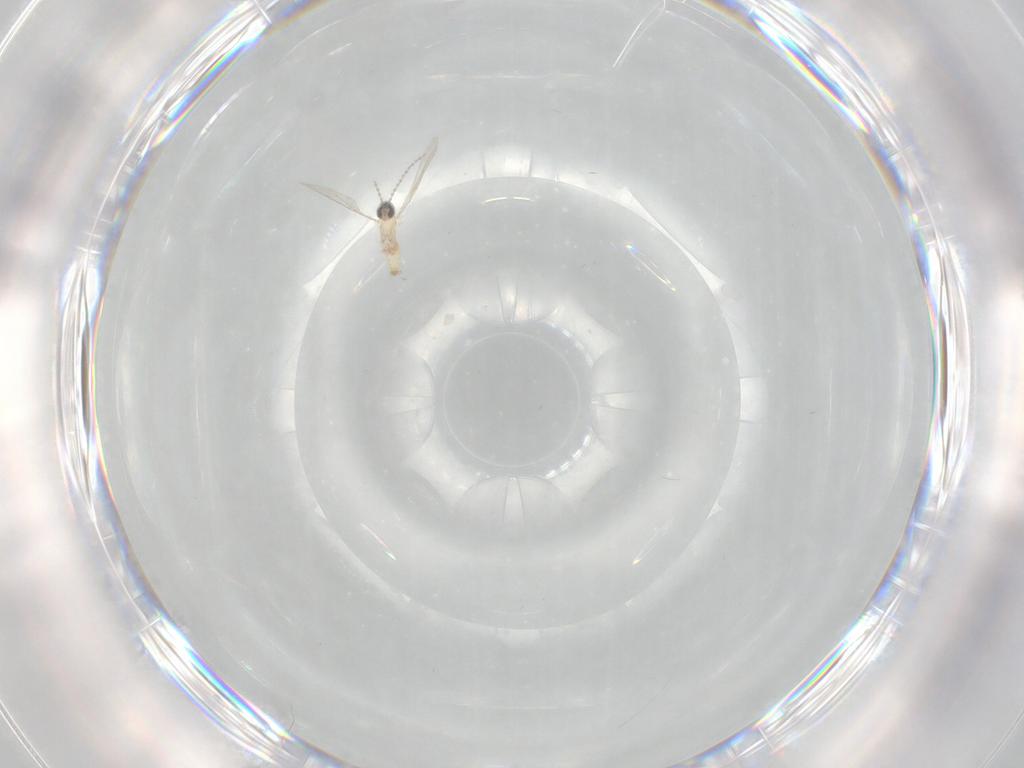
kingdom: Animalia
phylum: Arthropoda
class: Insecta
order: Diptera
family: Cecidomyiidae
